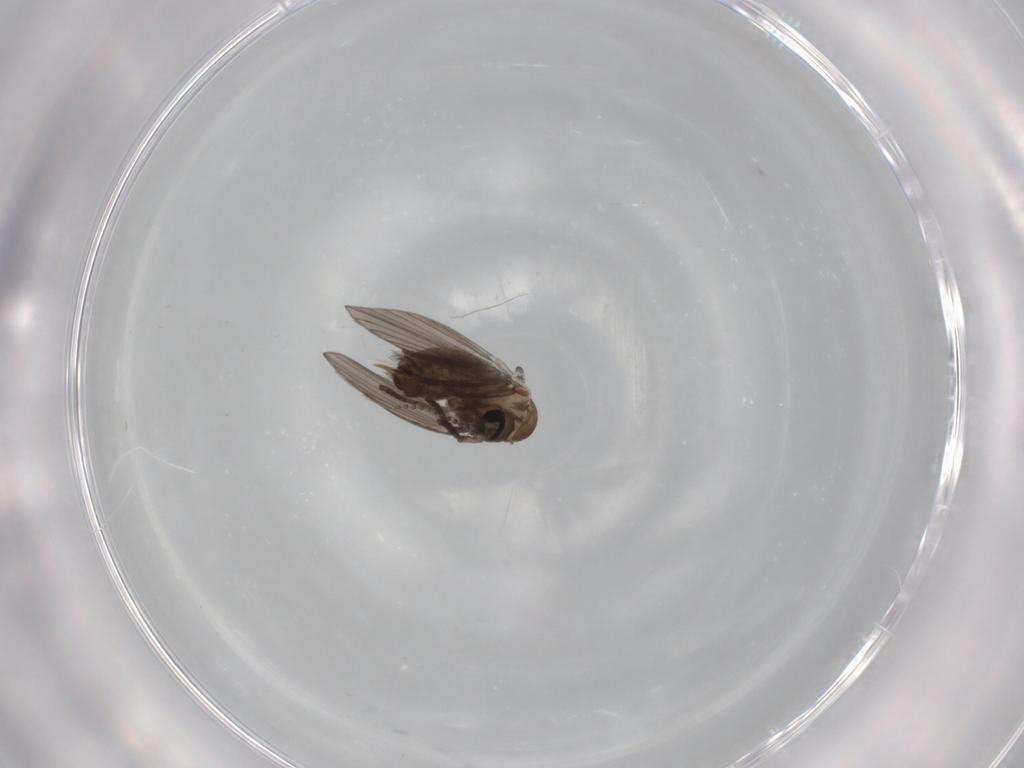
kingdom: Animalia
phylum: Arthropoda
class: Insecta
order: Diptera
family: Psychodidae
